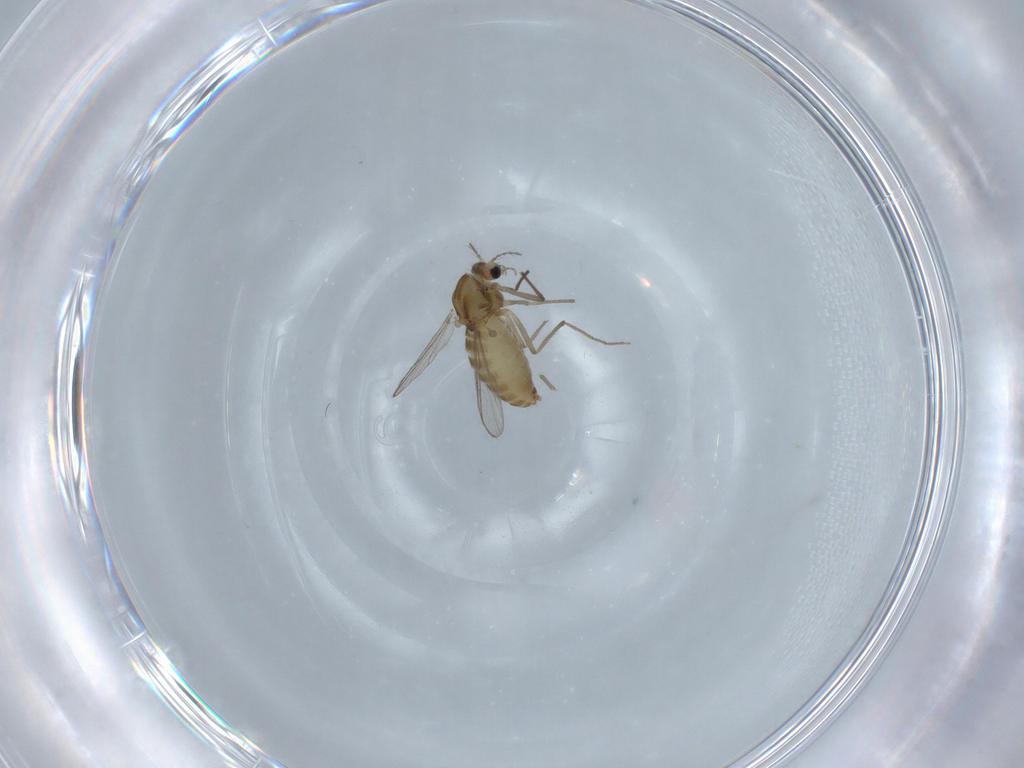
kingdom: Animalia
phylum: Arthropoda
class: Insecta
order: Diptera
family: Chironomidae
